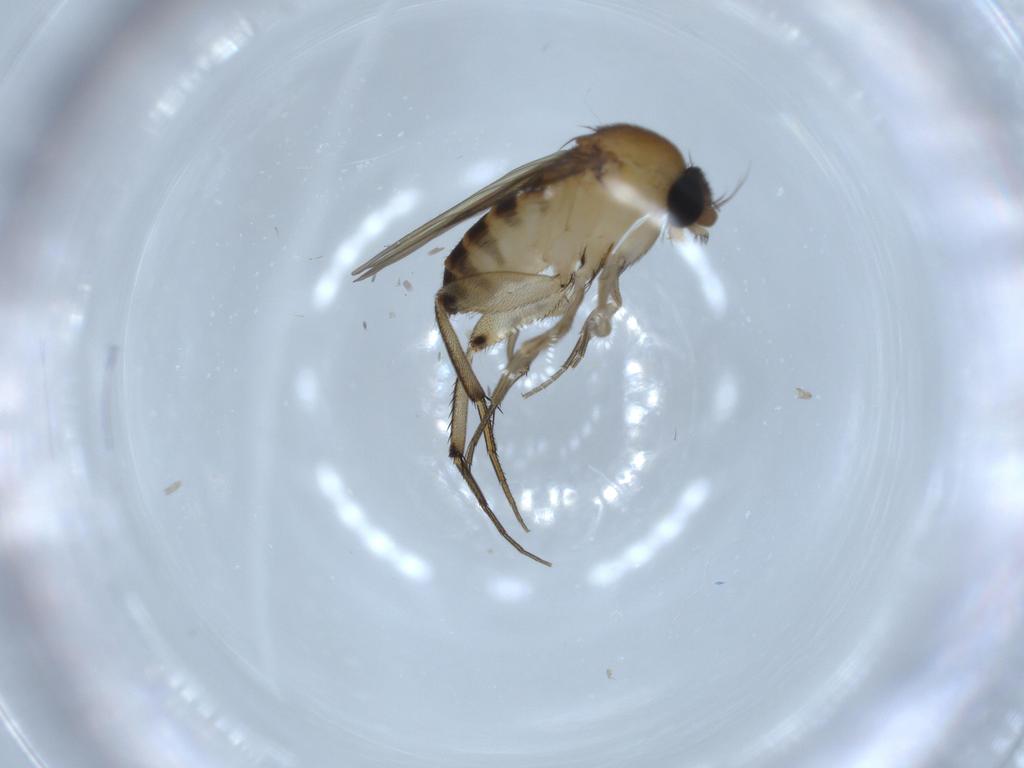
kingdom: Animalia
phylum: Arthropoda
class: Insecta
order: Diptera
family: Phoridae
